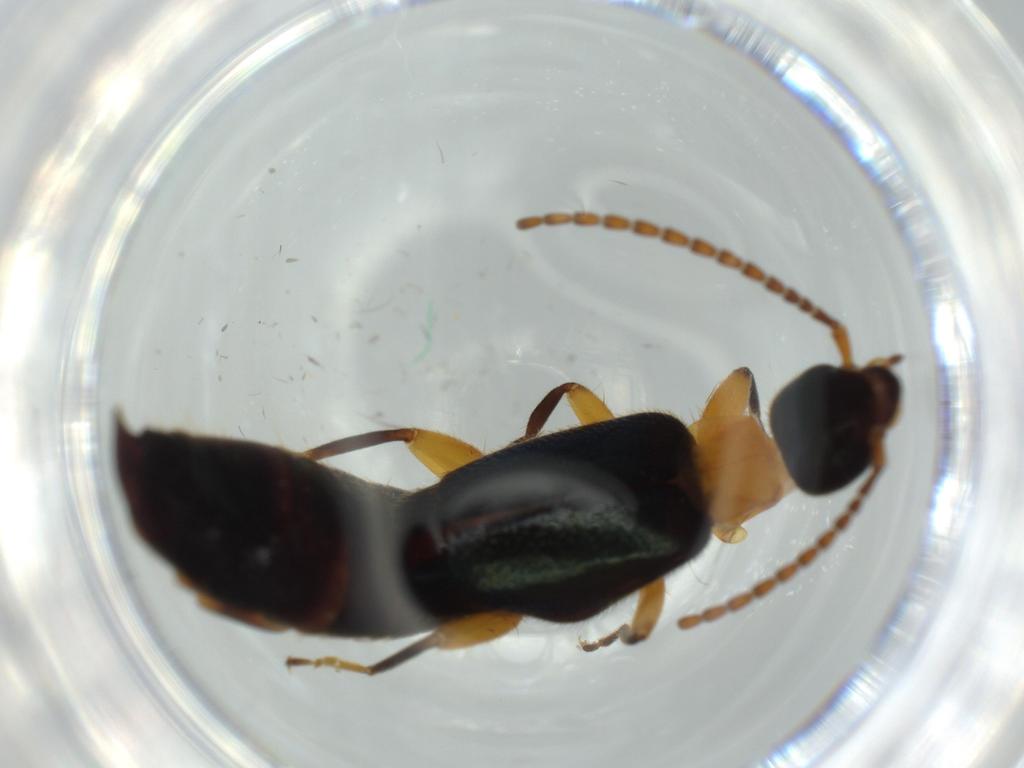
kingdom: Animalia
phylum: Arthropoda
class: Insecta
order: Dermaptera
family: Forficulidae
